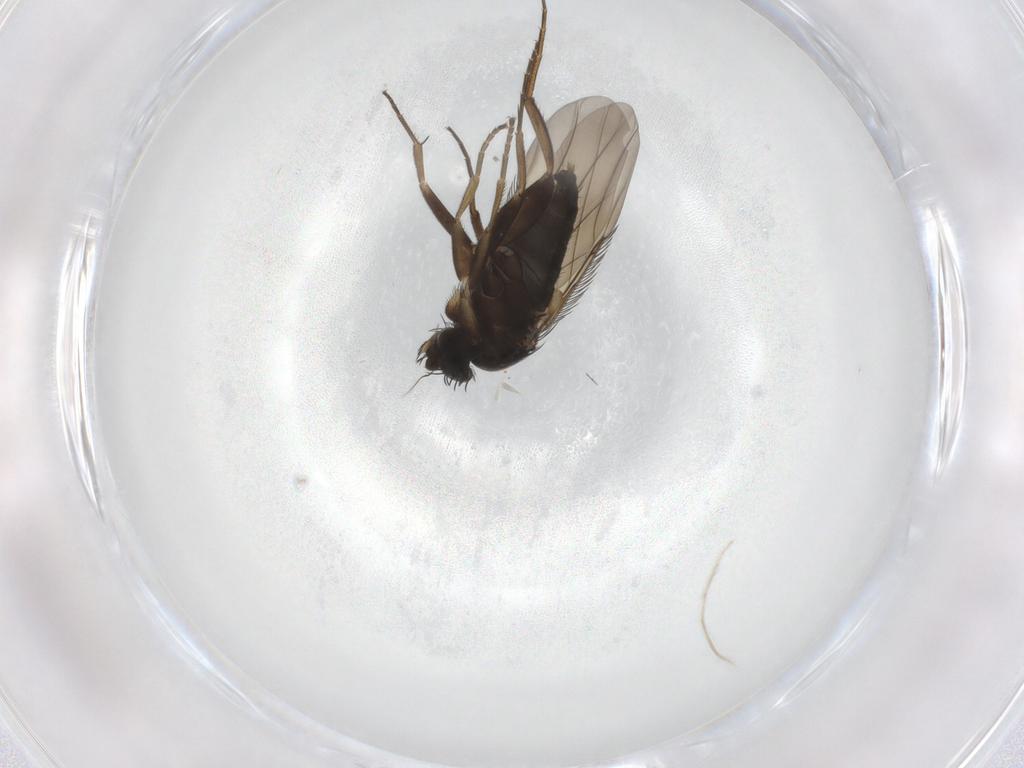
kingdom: Animalia
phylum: Arthropoda
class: Insecta
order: Diptera
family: Phoridae
